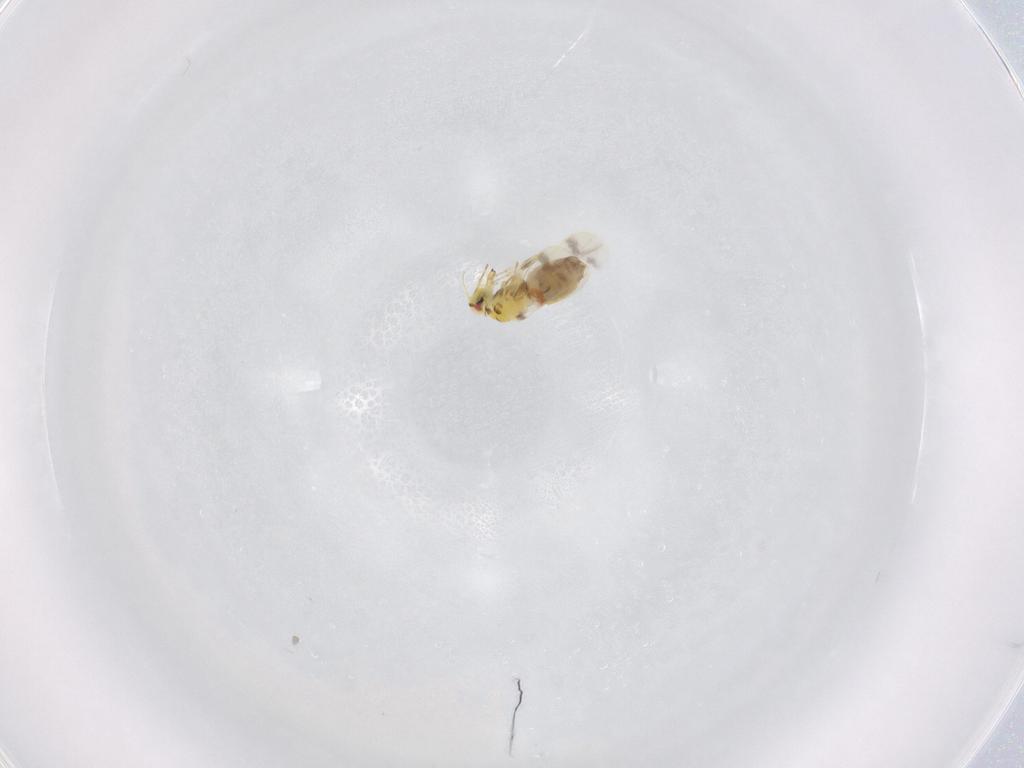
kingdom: Animalia
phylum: Arthropoda
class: Insecta
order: Hemiptera
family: Aleyrodidae
